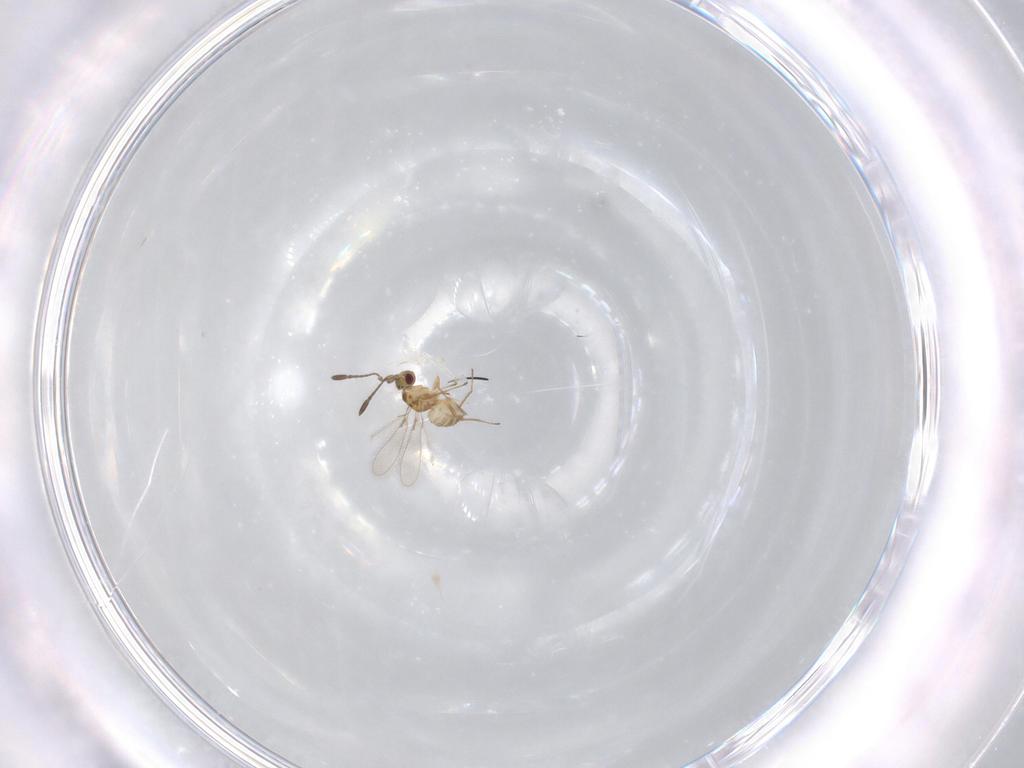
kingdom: Animalia
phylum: Arthropoda
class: Insecta
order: Hymenoptera
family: Mymaridae
